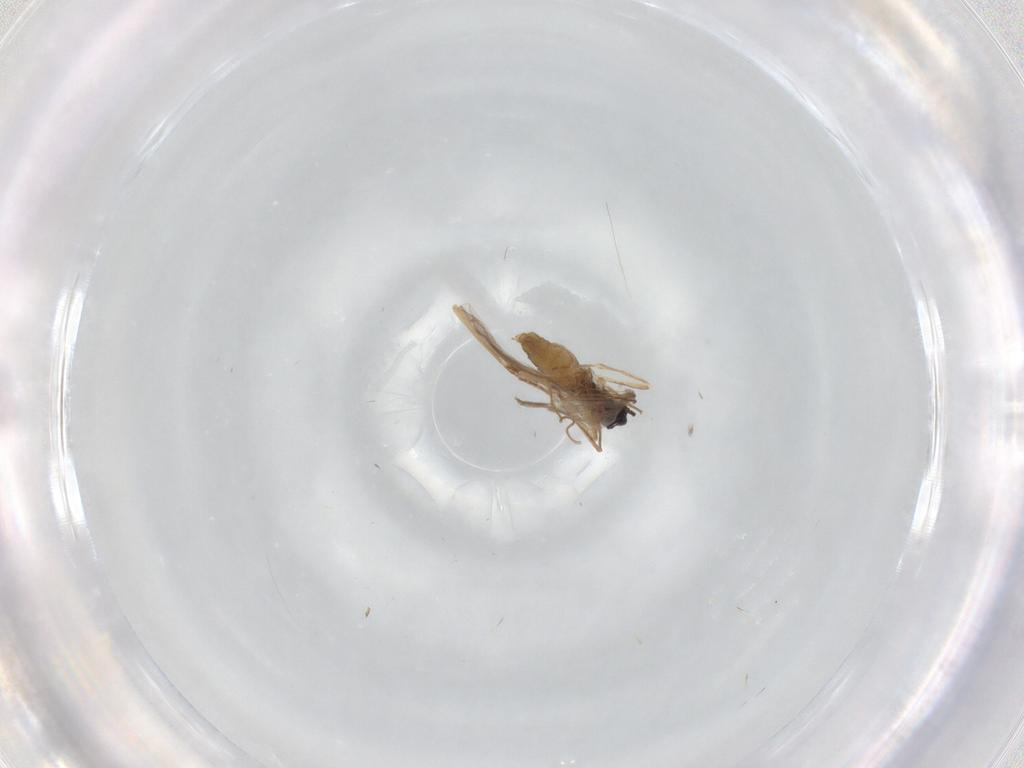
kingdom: Animalia
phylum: Arthropoda
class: Insecta
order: Diptera
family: Cecidomyiidae
